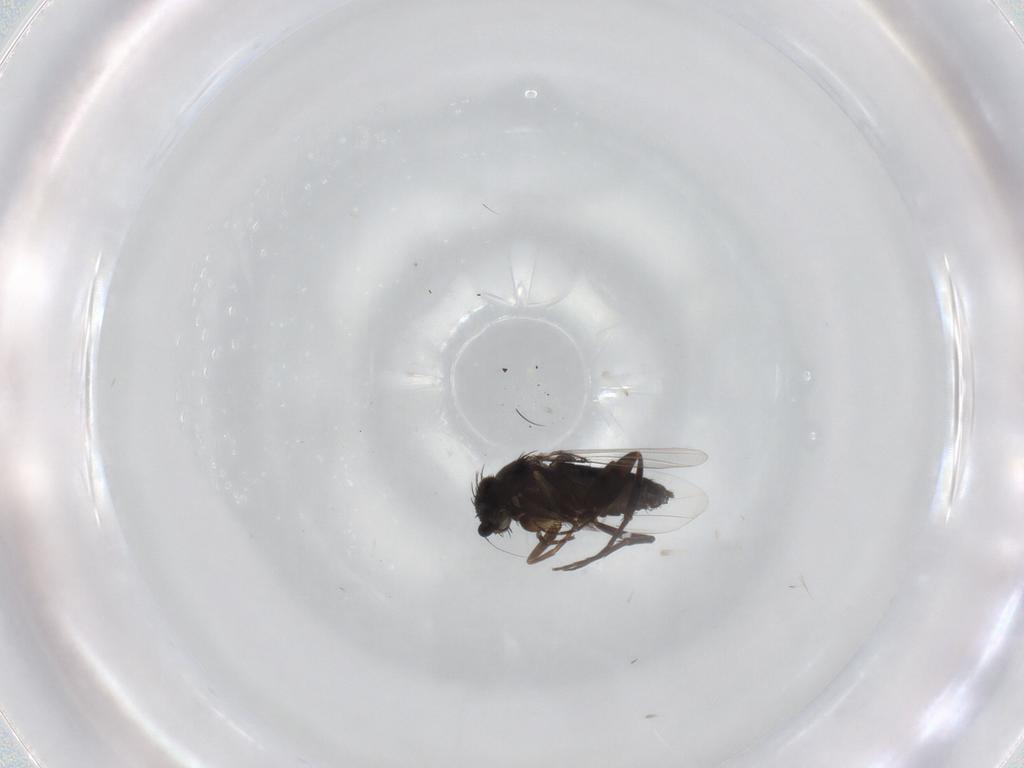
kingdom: Animalia
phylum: Arthropoda
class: Insecta
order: Diptera
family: Phoridae
